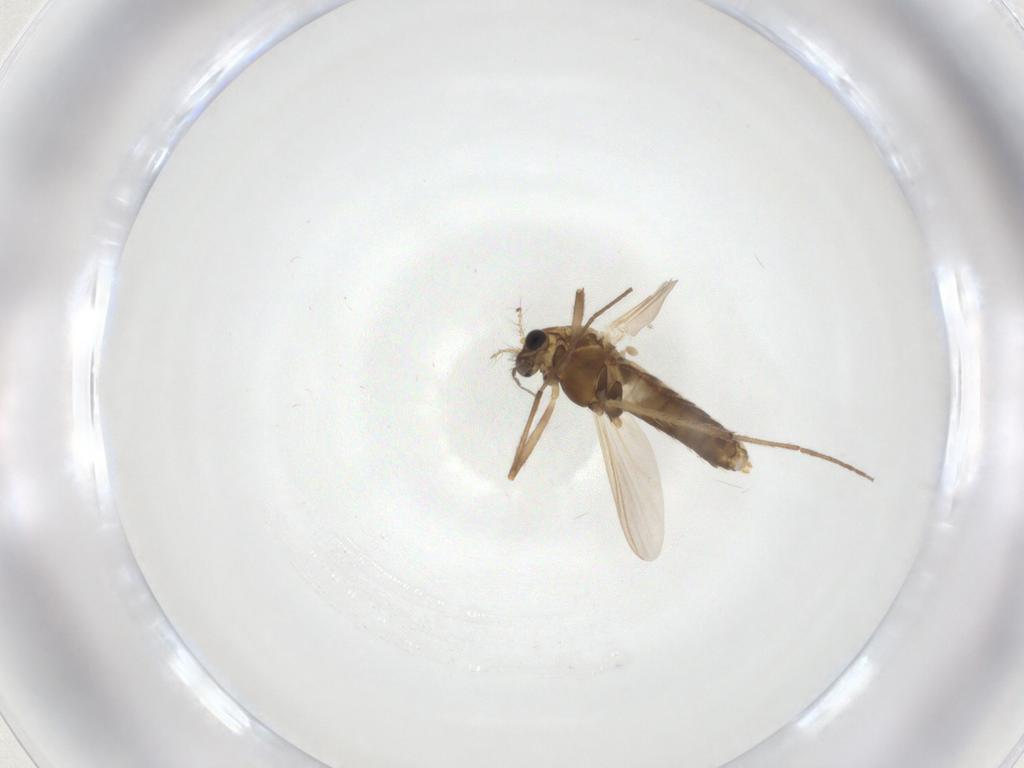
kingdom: Animalia
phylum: Arthropoda
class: Insecta
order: Diptera
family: Chironomidae
